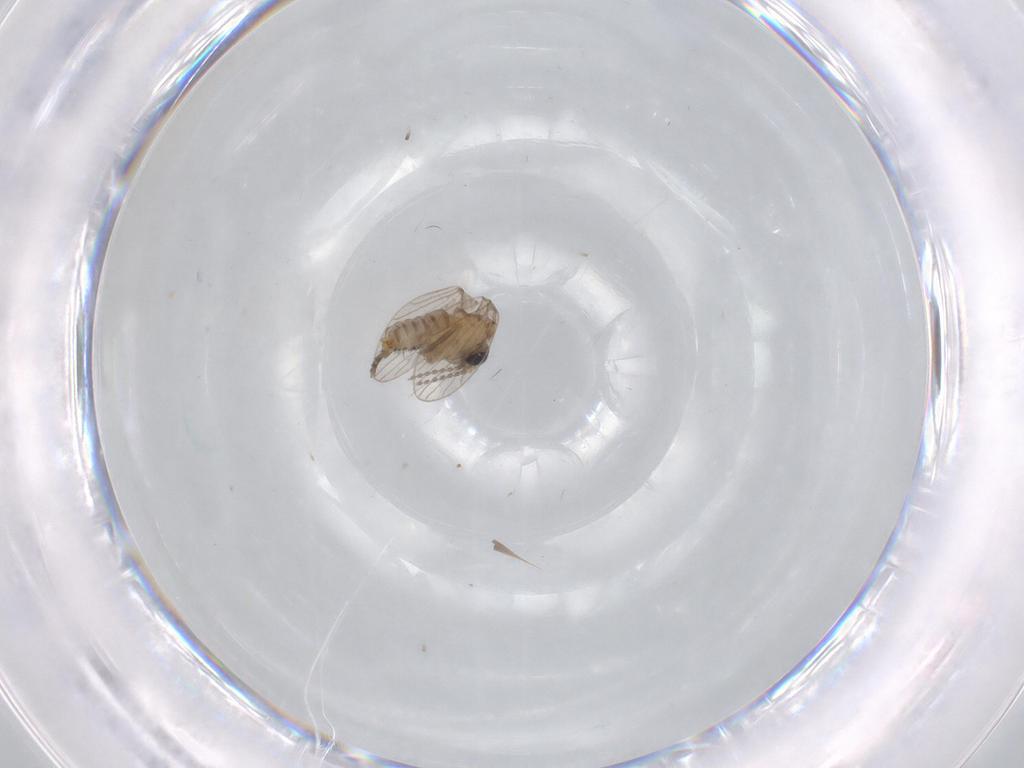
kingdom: Animalia
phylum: Arthropoda
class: Insecta
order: Diptera
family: Psychodidae
